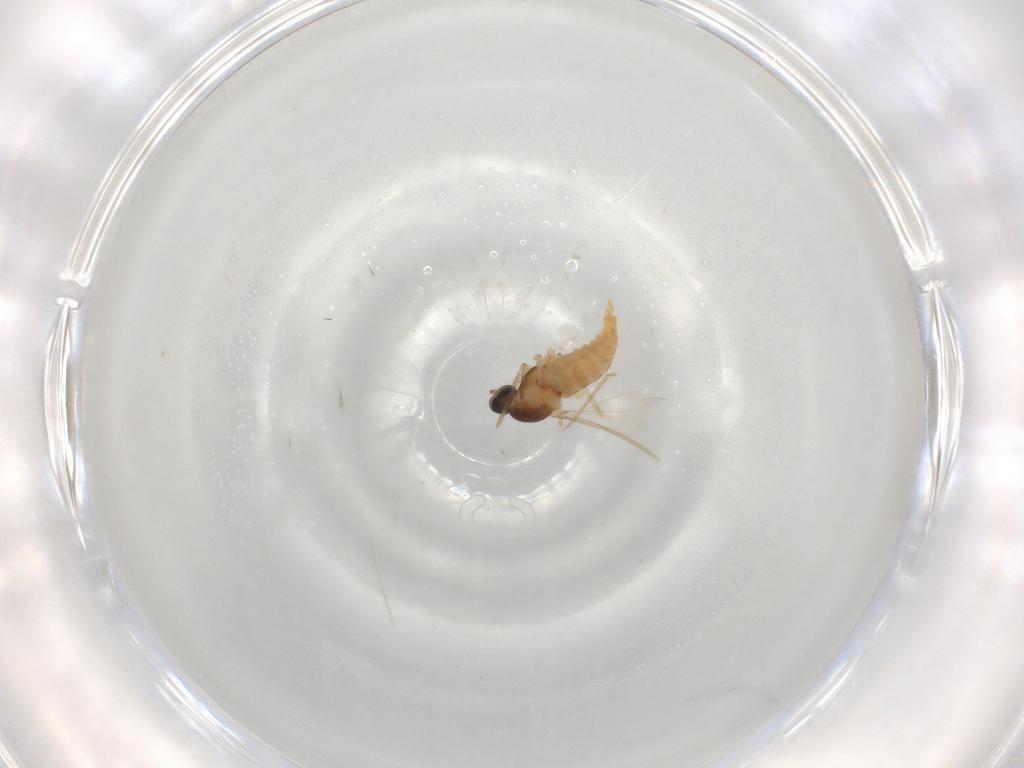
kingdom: Animalia
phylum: Arthropoda
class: Insecta
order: Diptera
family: Cecidomyiidae
